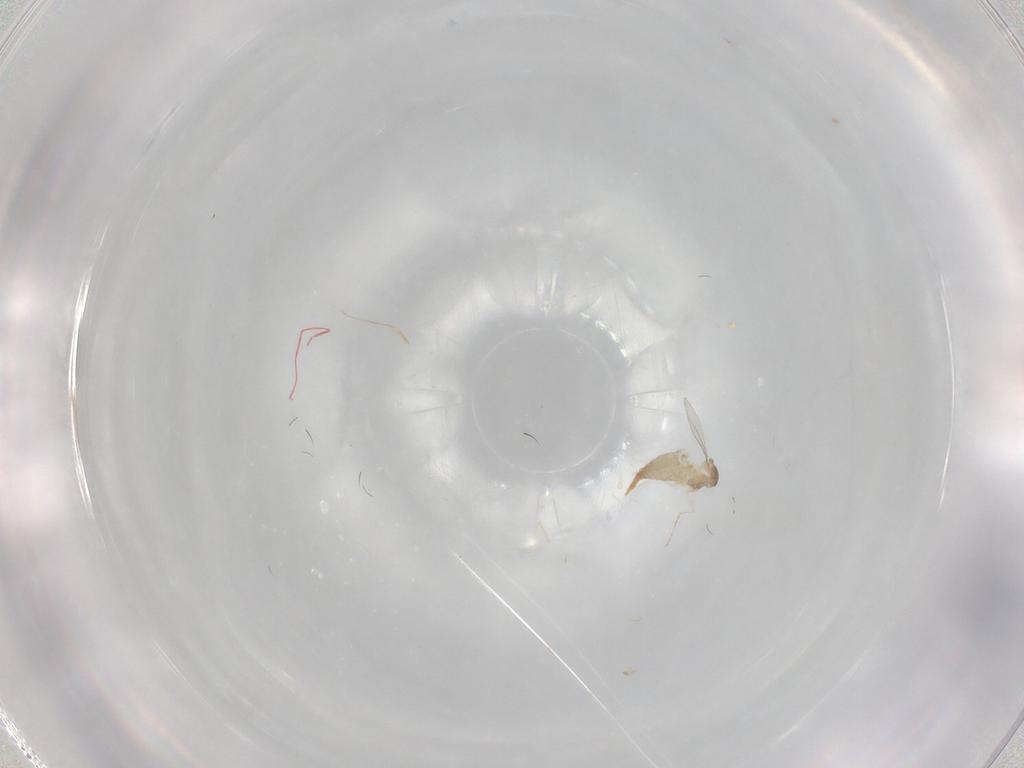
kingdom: Animalia
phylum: Arthropoda
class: Insecta
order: Diptera
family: Cecidomyiidae
